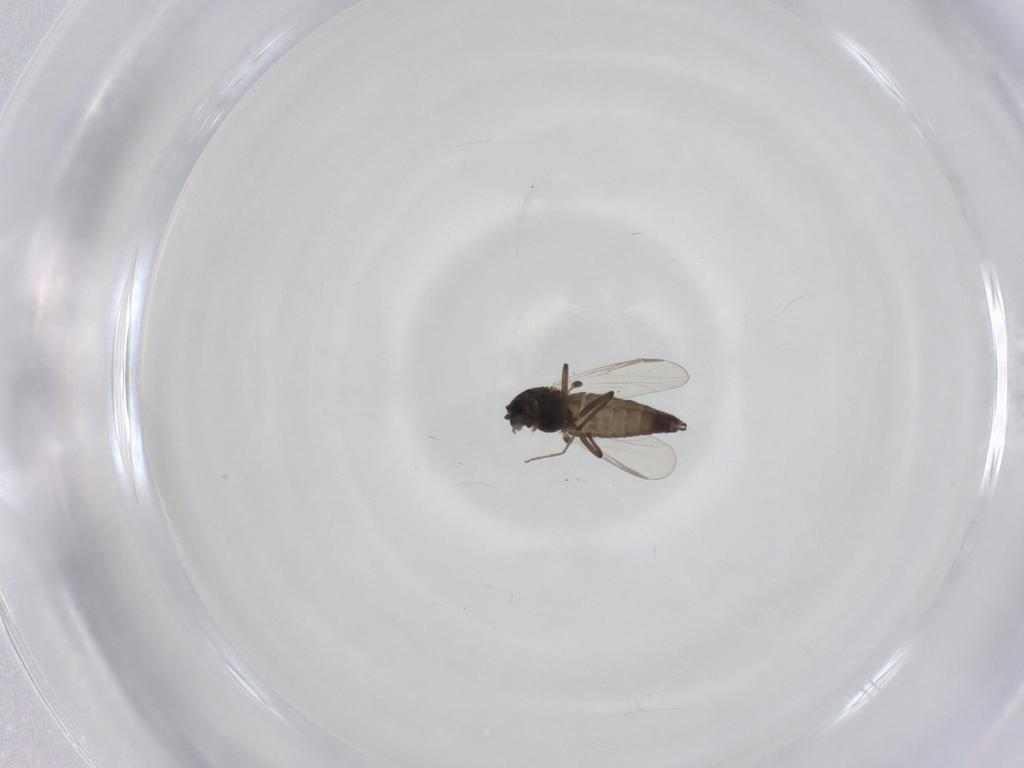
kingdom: Animalia
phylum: Arthropoda
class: Insecta
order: Diptera
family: Chironomidae
